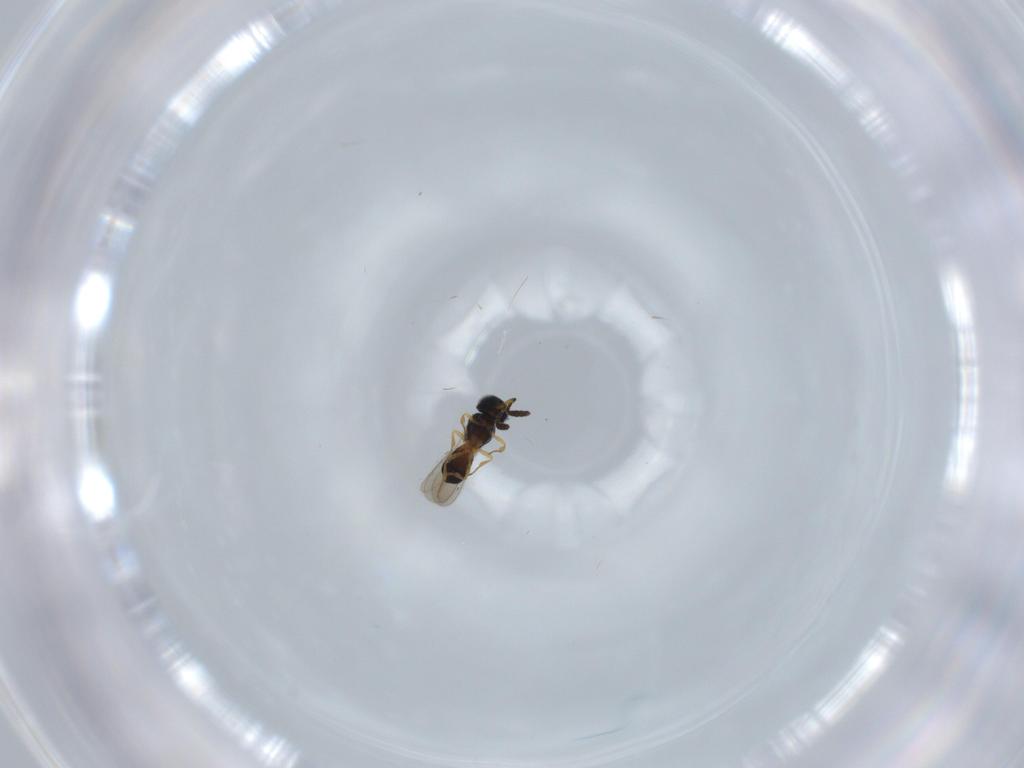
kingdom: Animalia
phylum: Arthropoda
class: Insecta
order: Hymenoptera
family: Scelionidae
